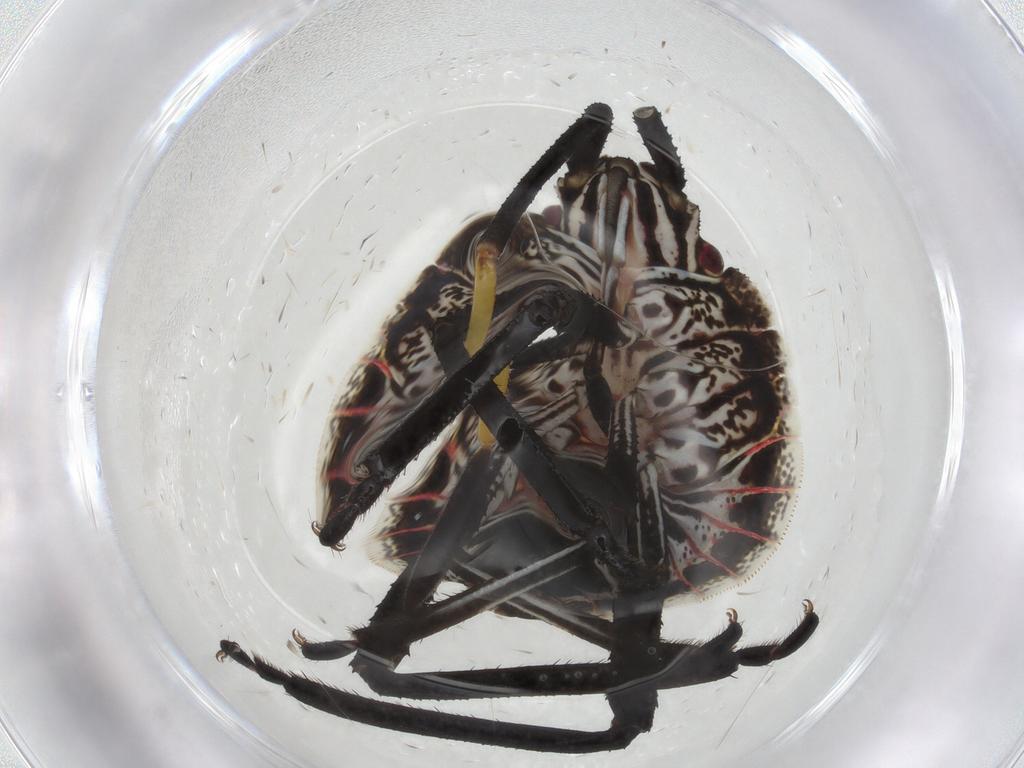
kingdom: Animalia
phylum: Arthropoda
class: Insecta
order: Hemiptera
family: Pentatomidae
